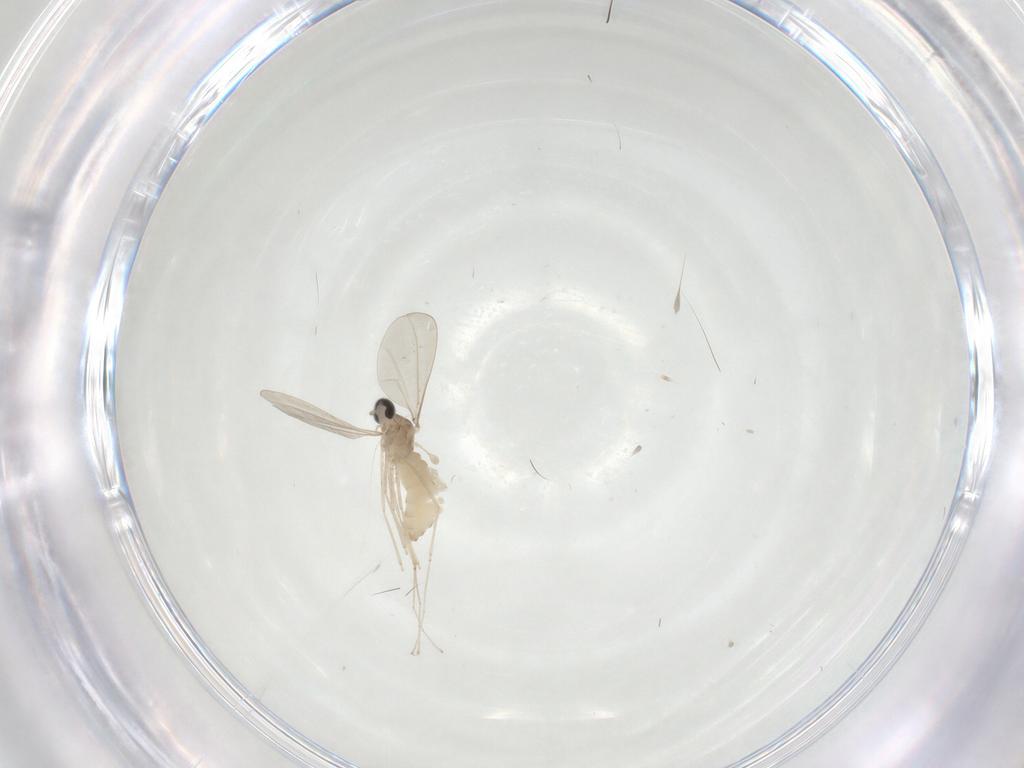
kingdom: Animalia
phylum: Arthropoda
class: Insecta
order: Diptera
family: Cecidomyiidae
